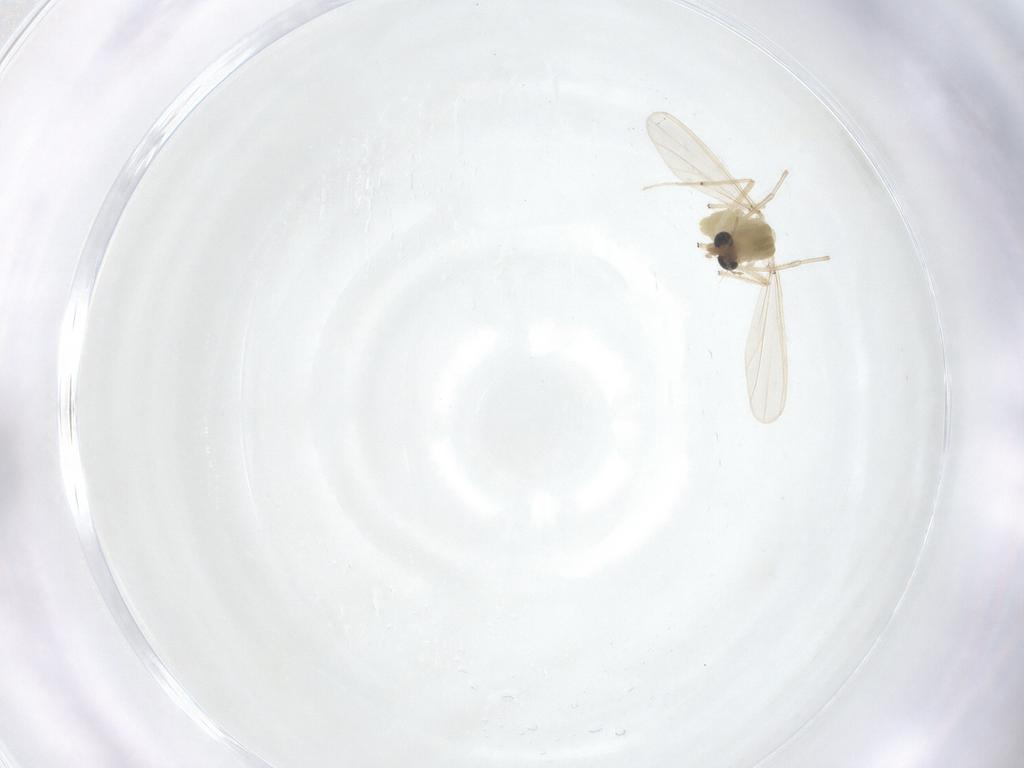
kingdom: Animalia
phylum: Arthropoda
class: Insecta
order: Diptera
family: Chironomidae
